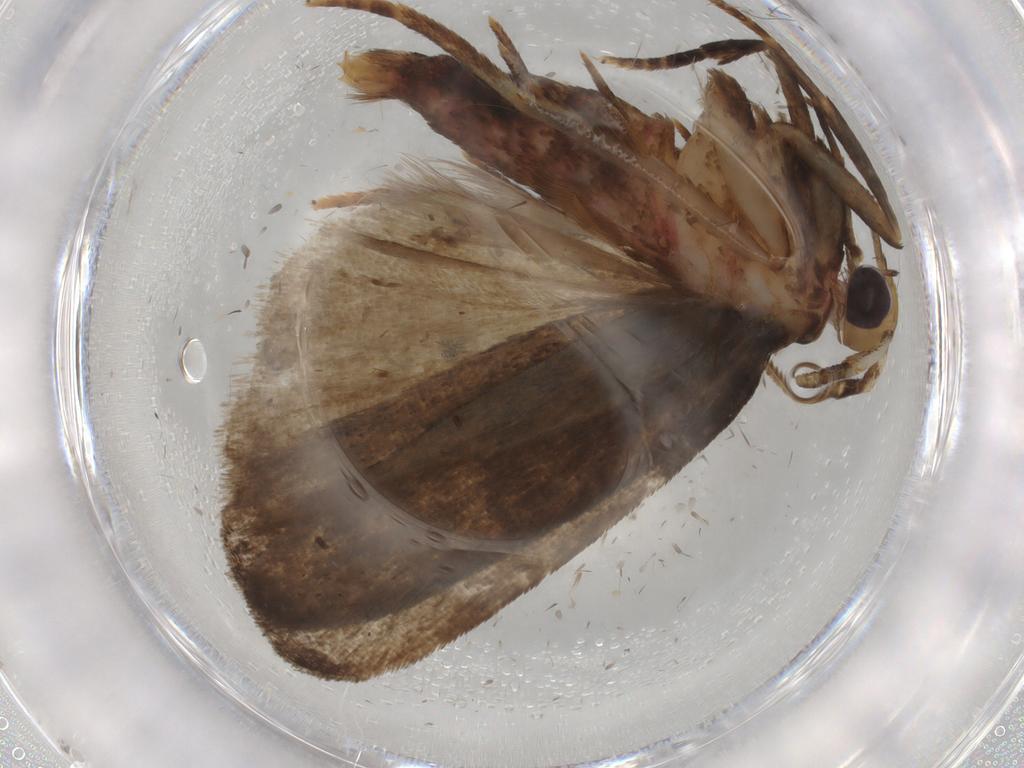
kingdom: Animalia
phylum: Arthropoda
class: Insecta
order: Lepidoptera
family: Autostichidae
